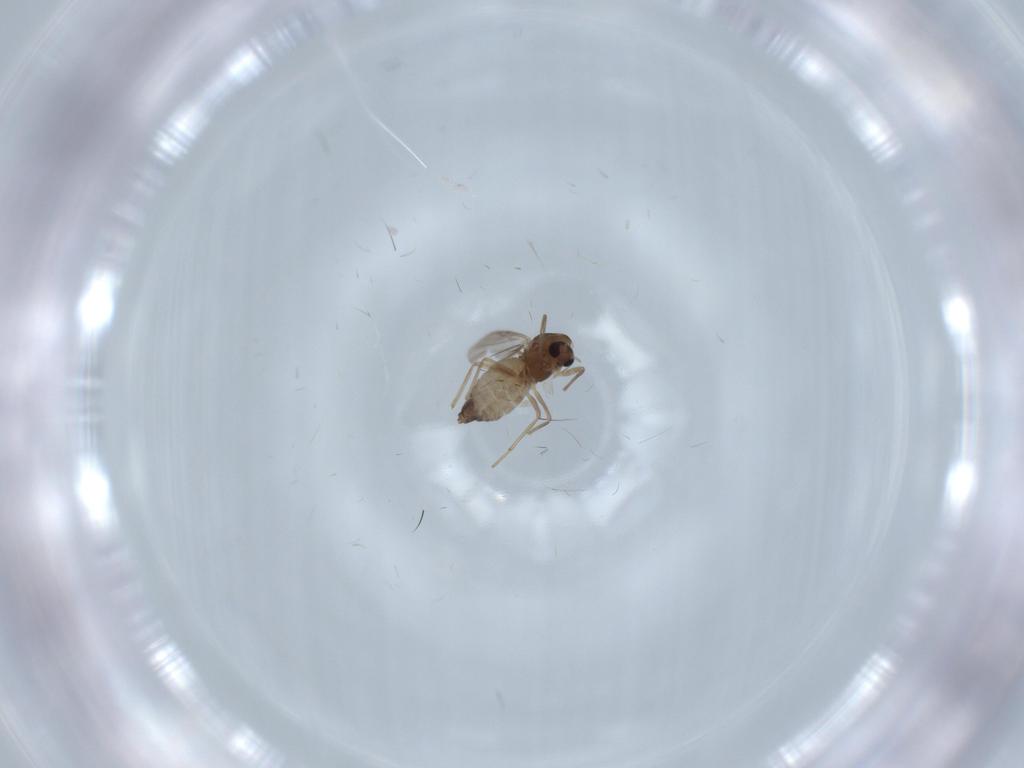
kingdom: Animalia
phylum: Arthropoda
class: Insecta
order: Diptera
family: Chironomidae
